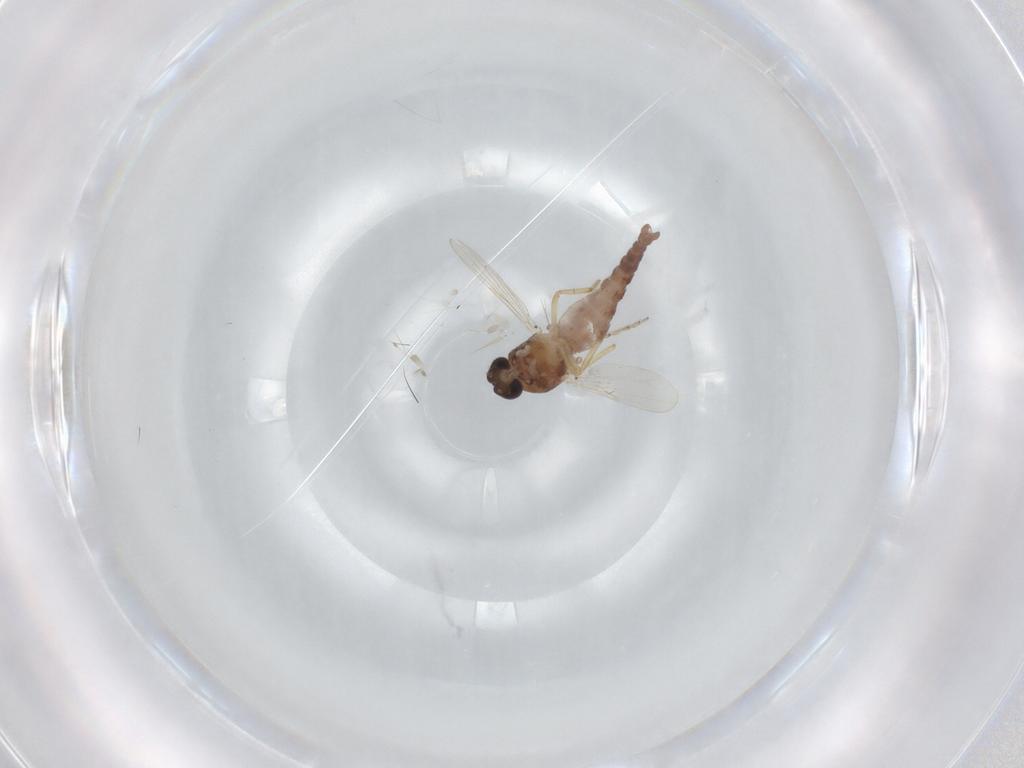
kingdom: Animalia
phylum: Arthropoda
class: Insecta
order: Diptera
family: Ceratopogonidae
